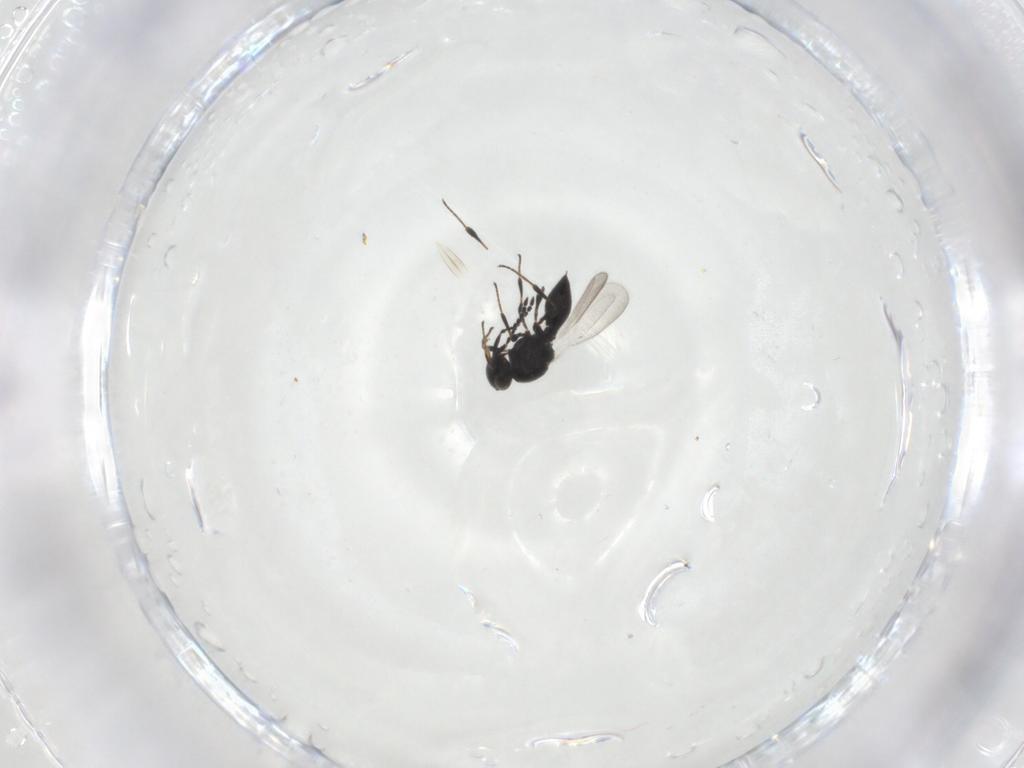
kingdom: Animalia
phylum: Arthropoda
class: Insecta
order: Hymenoptera
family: Platygastridae
